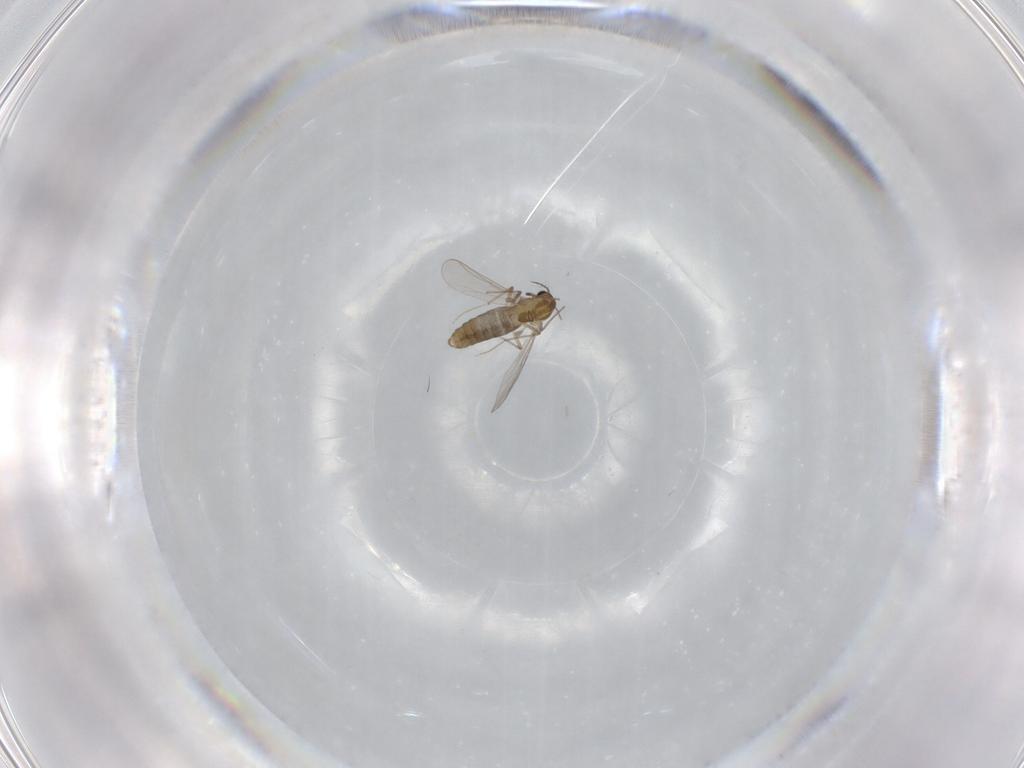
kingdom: Animalia
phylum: Arthropoda
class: Insecta
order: Diptera
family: Chironomidae
